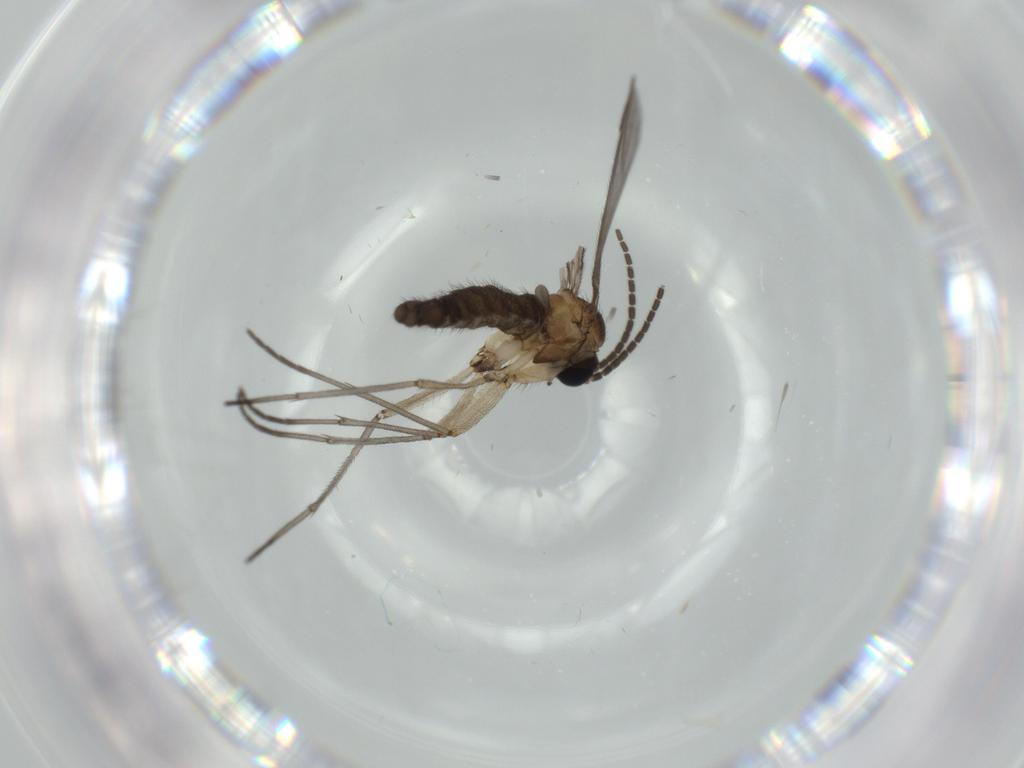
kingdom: Animalia
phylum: Arthropoda
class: Insecta
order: Diptera
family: Sciaridae
